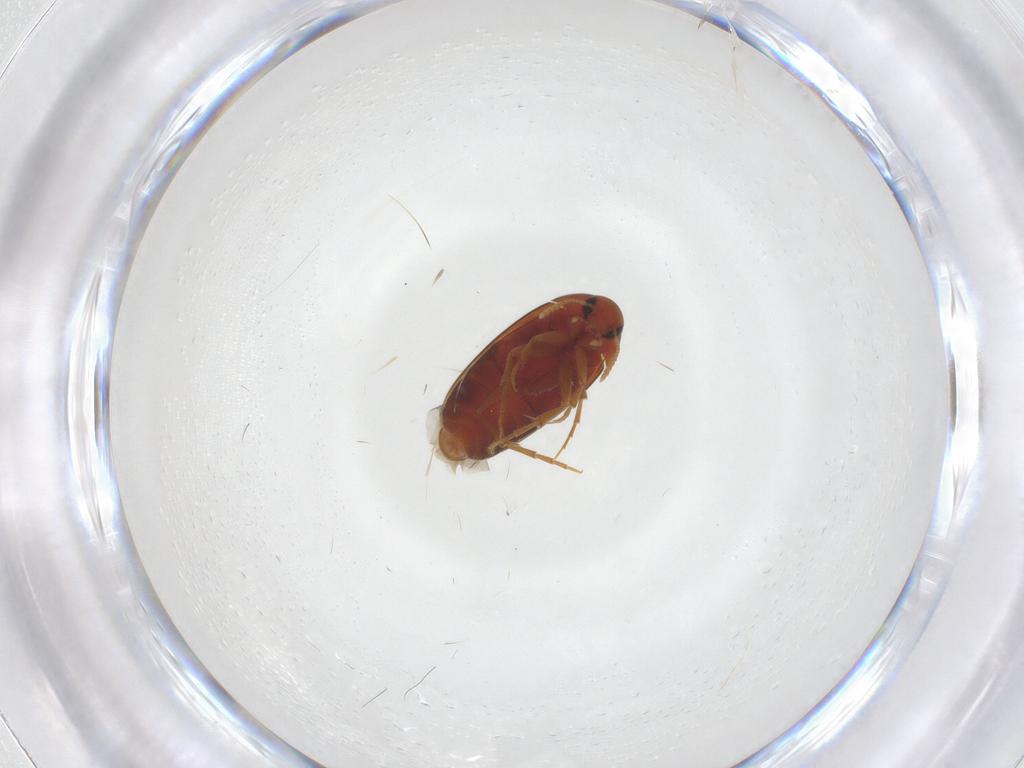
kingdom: Animalia
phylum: Arthropoda
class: Insecta
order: Coleoptera
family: Scraptiidae
